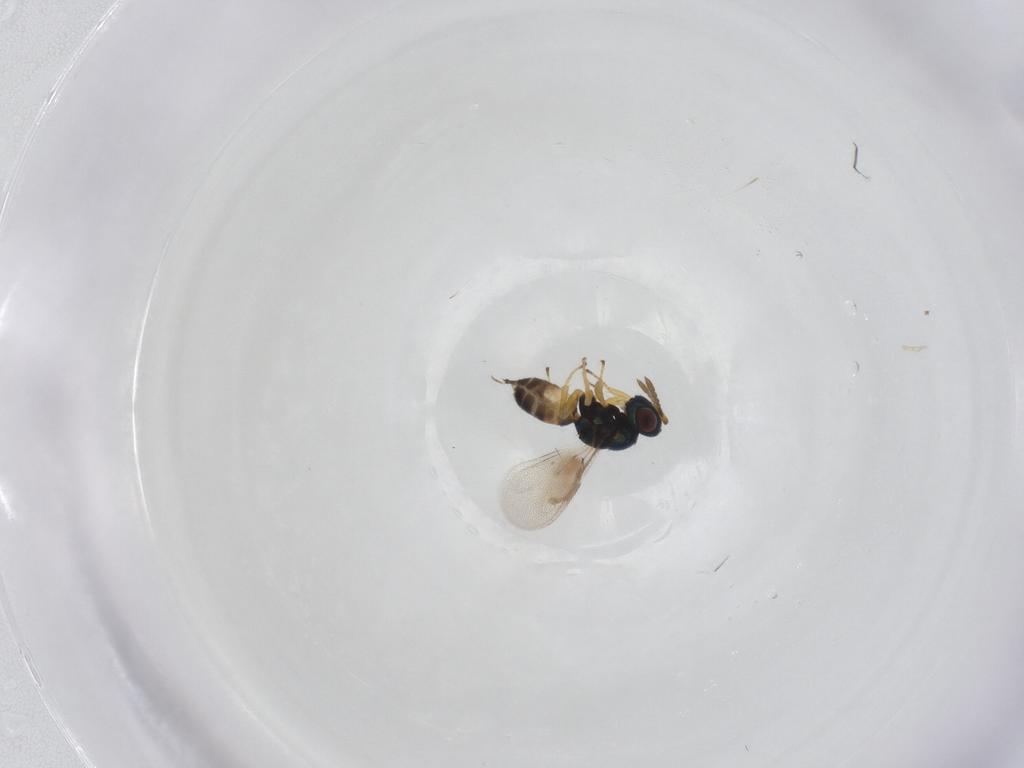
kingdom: Animalia
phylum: Arthropoda
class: Insecta
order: Hymenoptera
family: Pteromalidae
